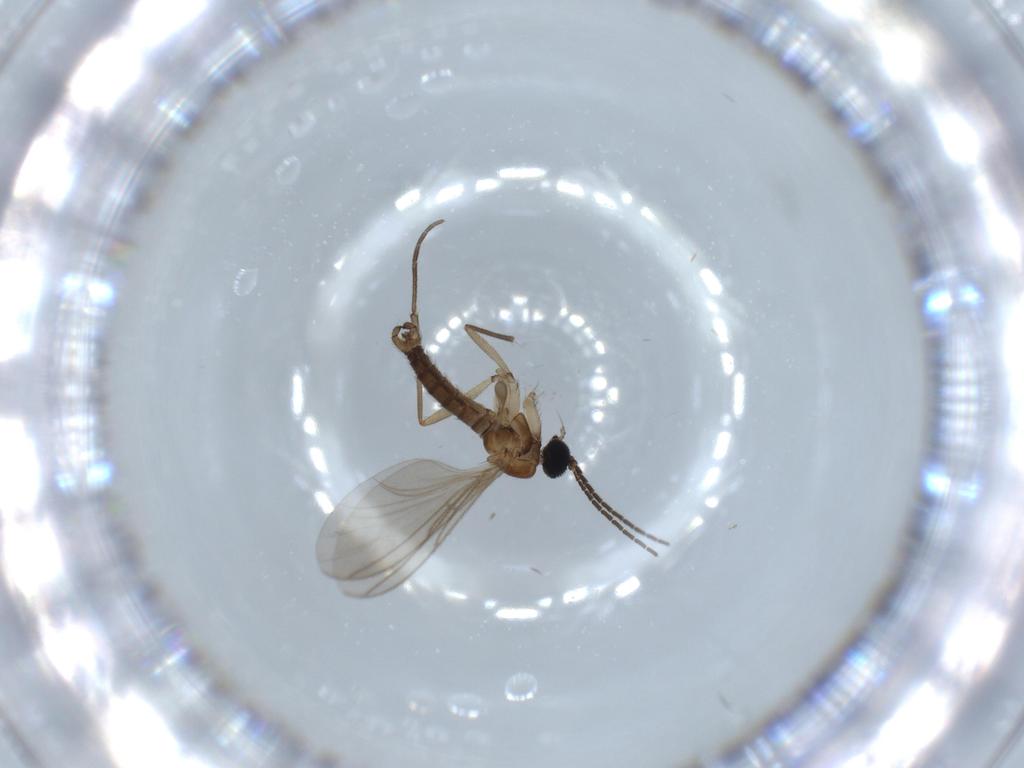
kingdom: Animalia
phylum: Arthropoda
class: Insecta
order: Diptera
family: Sciaridae
